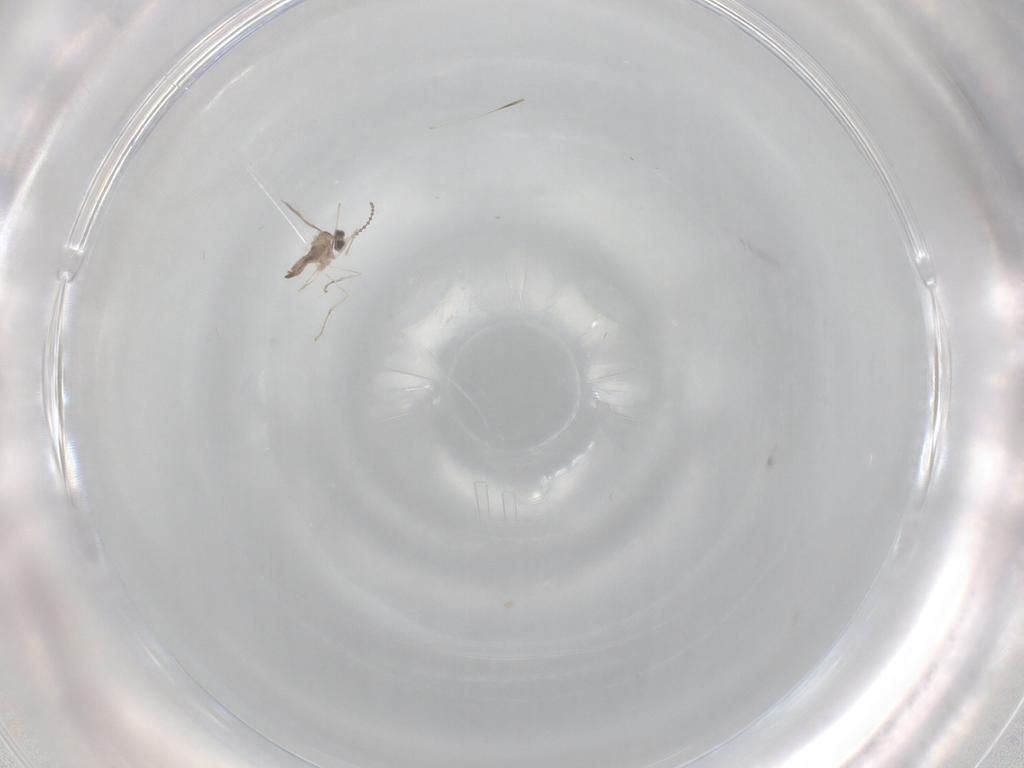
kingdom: Animalia
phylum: Arthropoda
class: Insecta
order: Diptera
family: Cecidomyiidae
